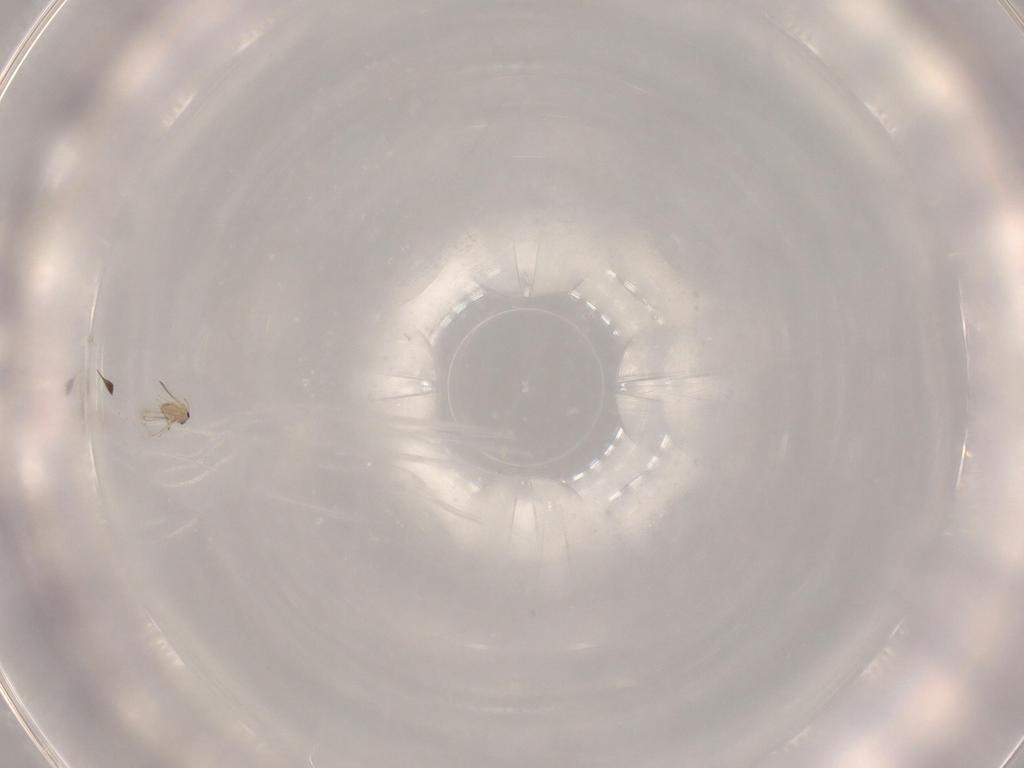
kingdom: Animalia
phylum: Arthropoda
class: Insecta
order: Hymenoptera
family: Mymaridae
